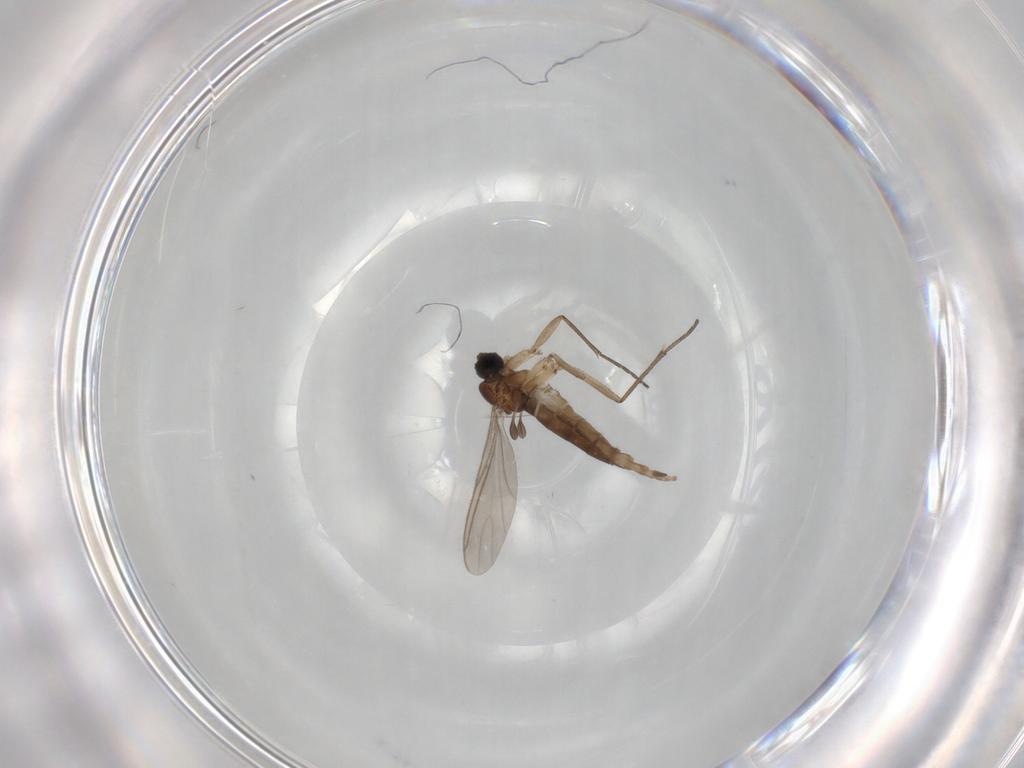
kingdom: Animalia
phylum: Arthropoda
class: Insecta
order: Diptera
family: Sciaridae
